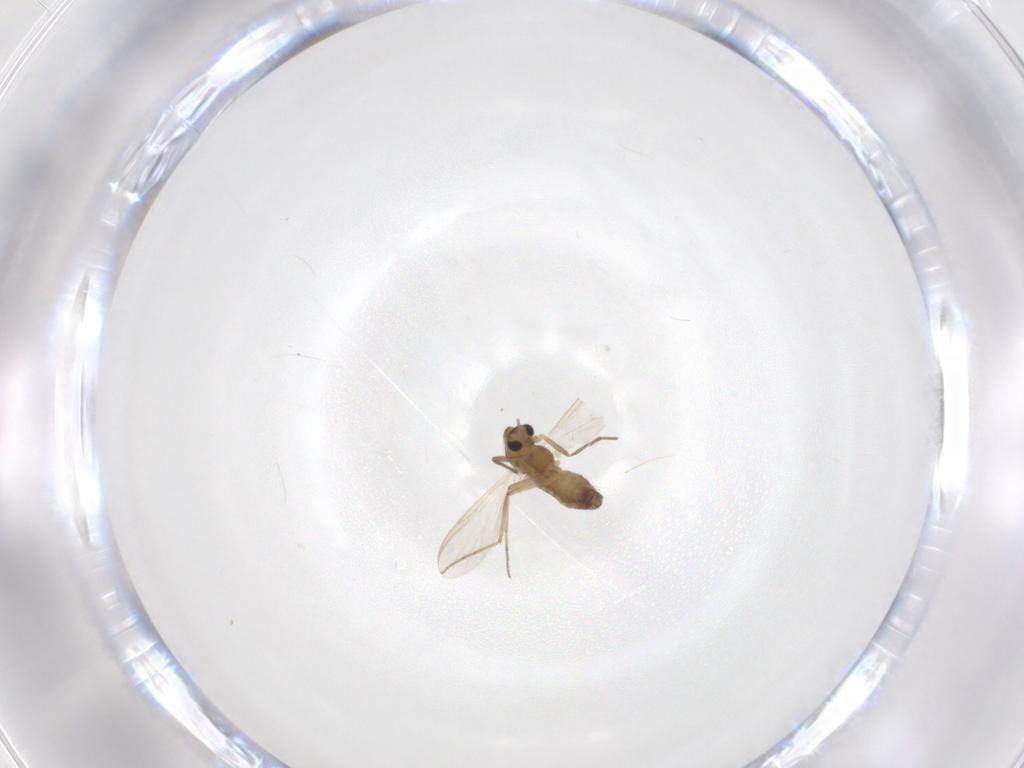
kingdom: Animalia
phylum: Arthropoda
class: Insecta
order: Diptera
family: Chironomidae
